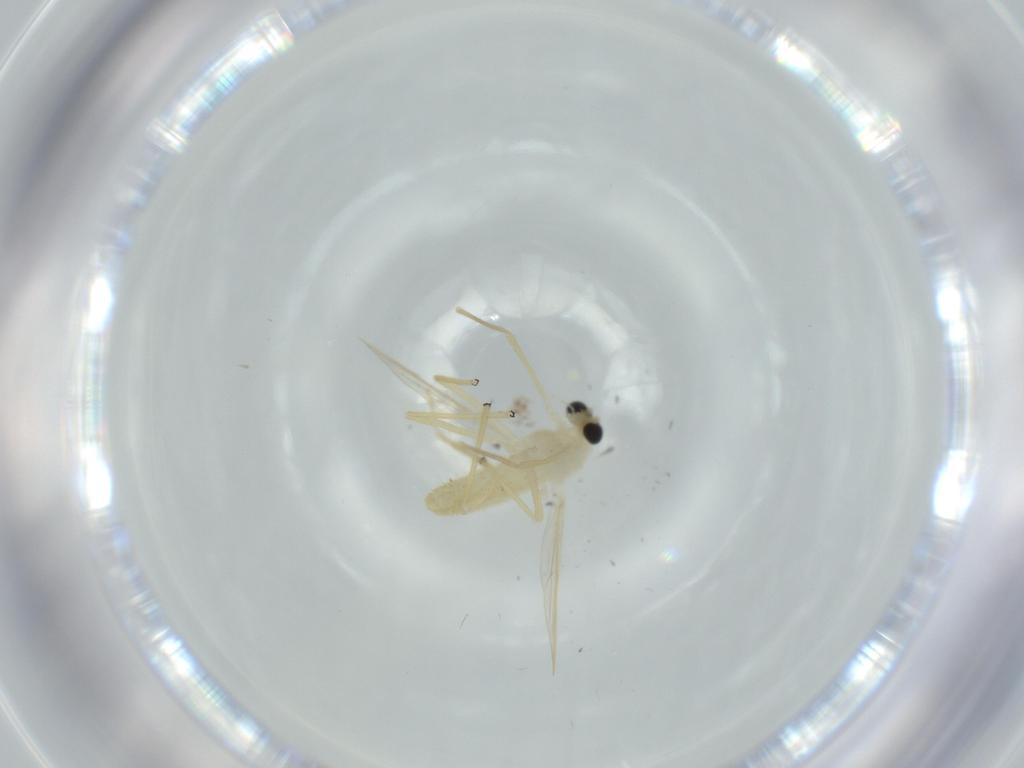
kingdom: Animalia
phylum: Arthropoda
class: Insecta
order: Diptera
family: Chironomidae
